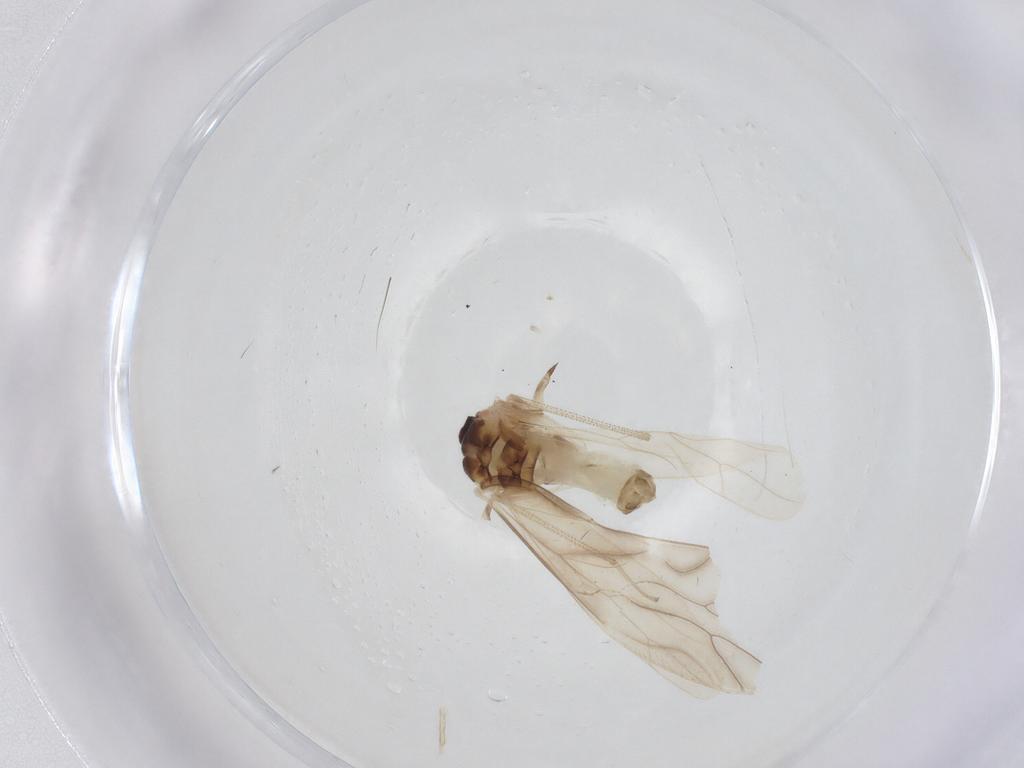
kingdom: Animalia
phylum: Arthropoda
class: Insecta
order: Psocodea
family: Caeciliusidae
